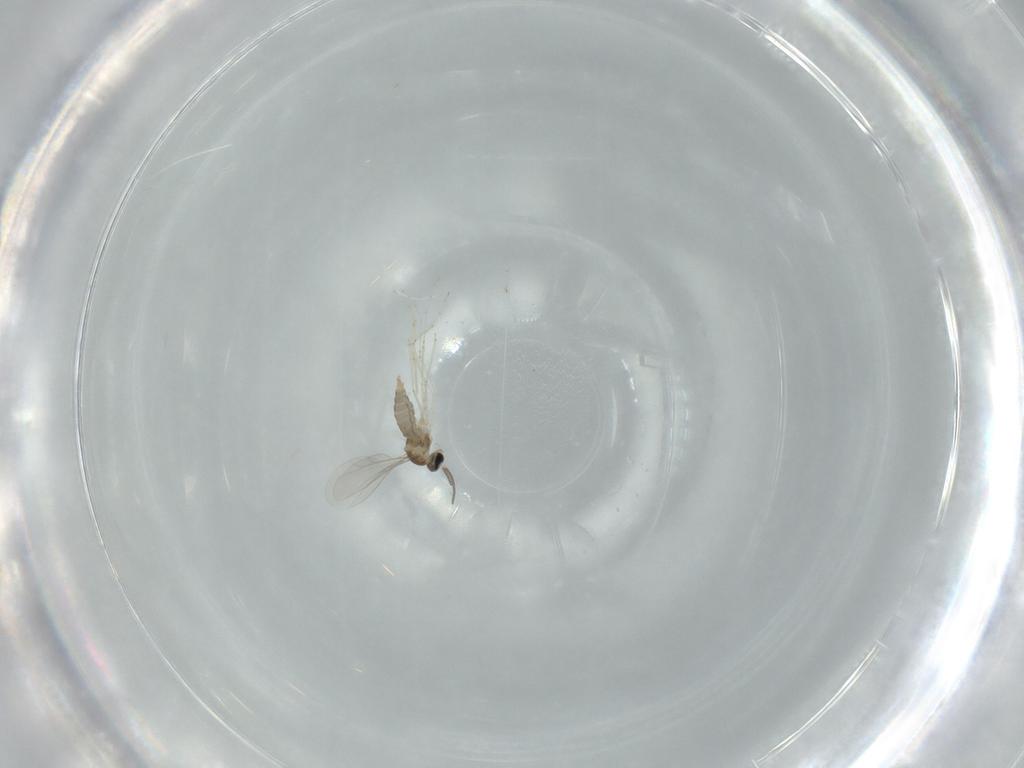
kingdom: Animalia
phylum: Arthropoda
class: Insecta
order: Diptera
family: Cecidomyiidae
